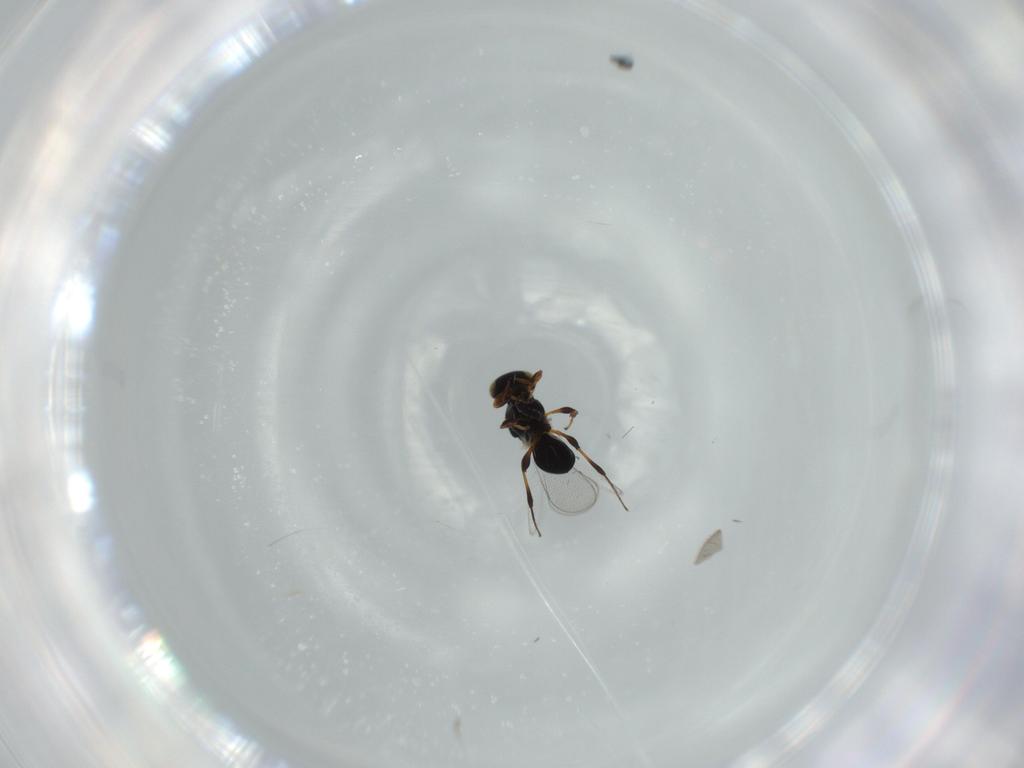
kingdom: Animalia
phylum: Arthropoda
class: Insecta
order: Hymenoptera
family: Platygastridae
